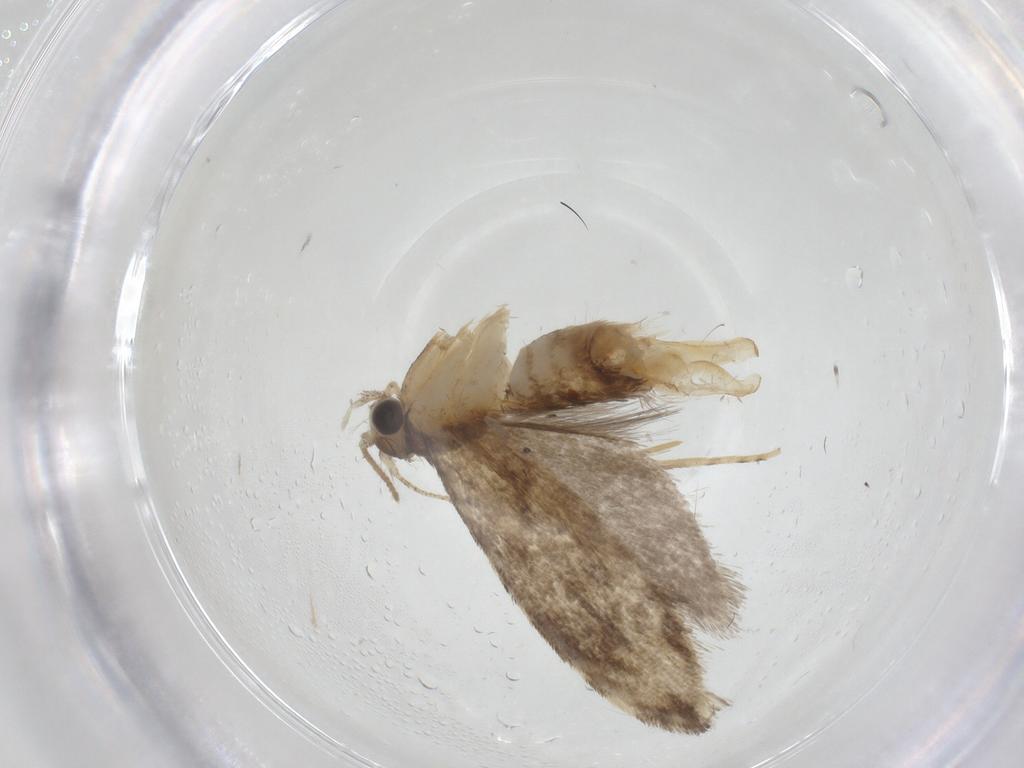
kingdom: Animalia
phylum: Arthropoda
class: Insecta
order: Lepidoptera
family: Tineidae
